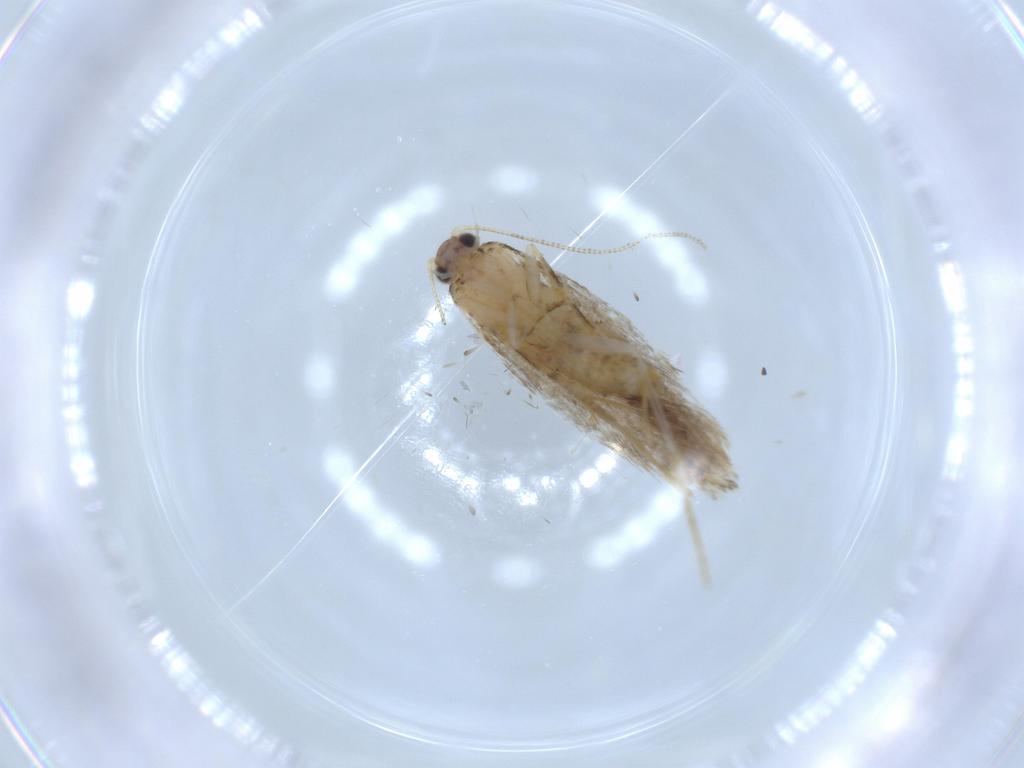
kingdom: Animalia
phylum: Arthropoda
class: Insecta
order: Lepidoptera
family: Tineidae
